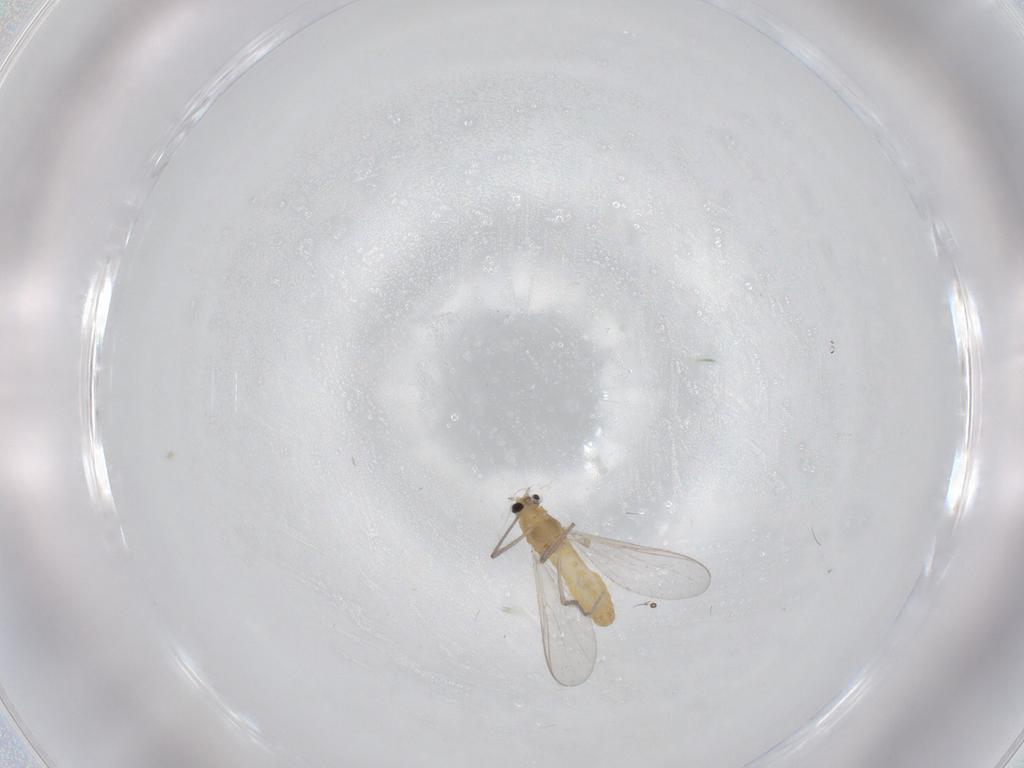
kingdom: Animalia
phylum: Arthropoda
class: Insecta
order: Diptera
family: Chironomidae
